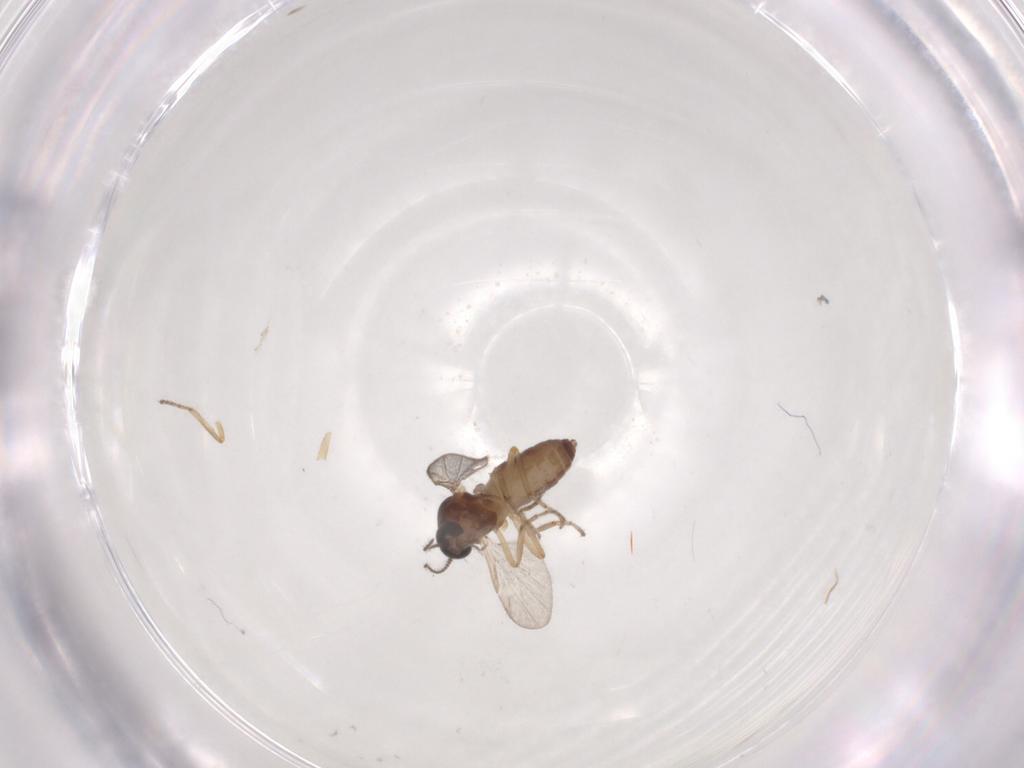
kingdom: Animalia
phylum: Arthropoda
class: Insecta
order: Diptera
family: Ceratopogonidae
